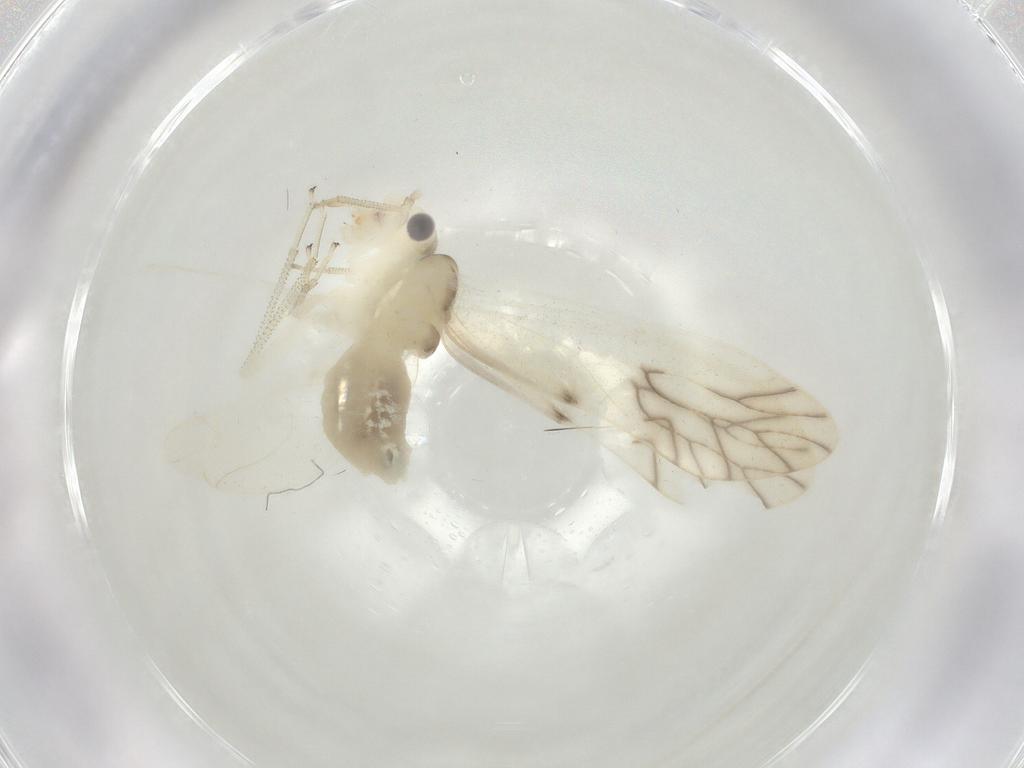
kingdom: Animalia
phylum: Arthropoda
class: Insecta
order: Psocodea
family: Caeciliusidae
